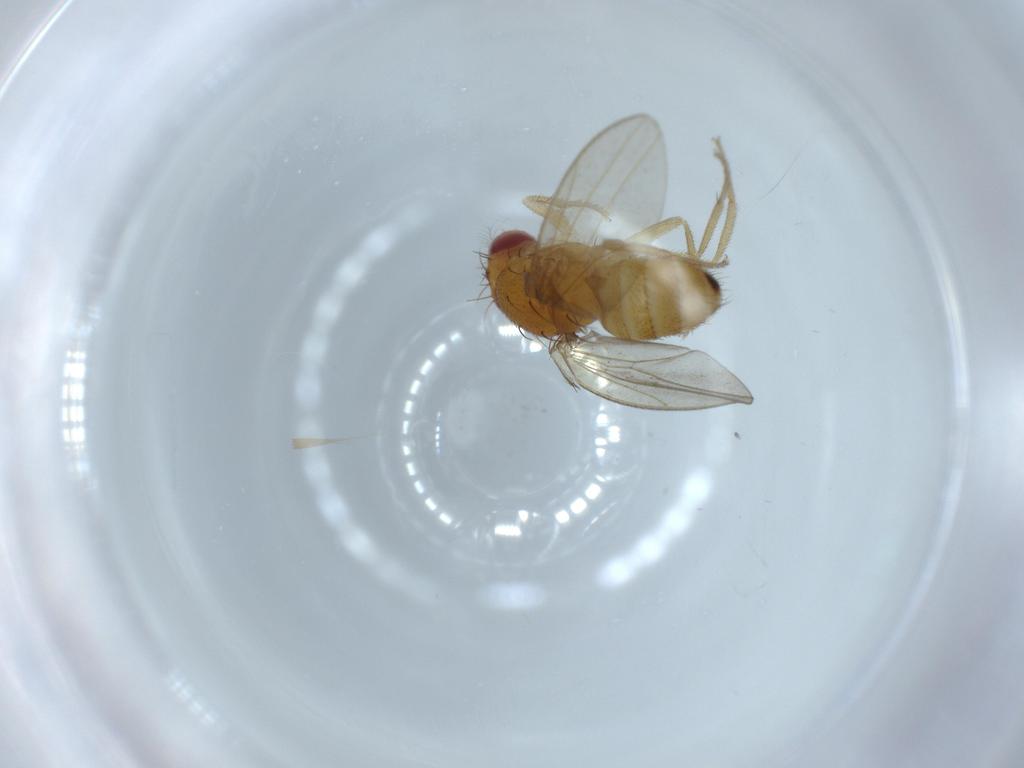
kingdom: Animalia
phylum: Arthropoda
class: Insecta
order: Diptera
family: Drosophilidae
